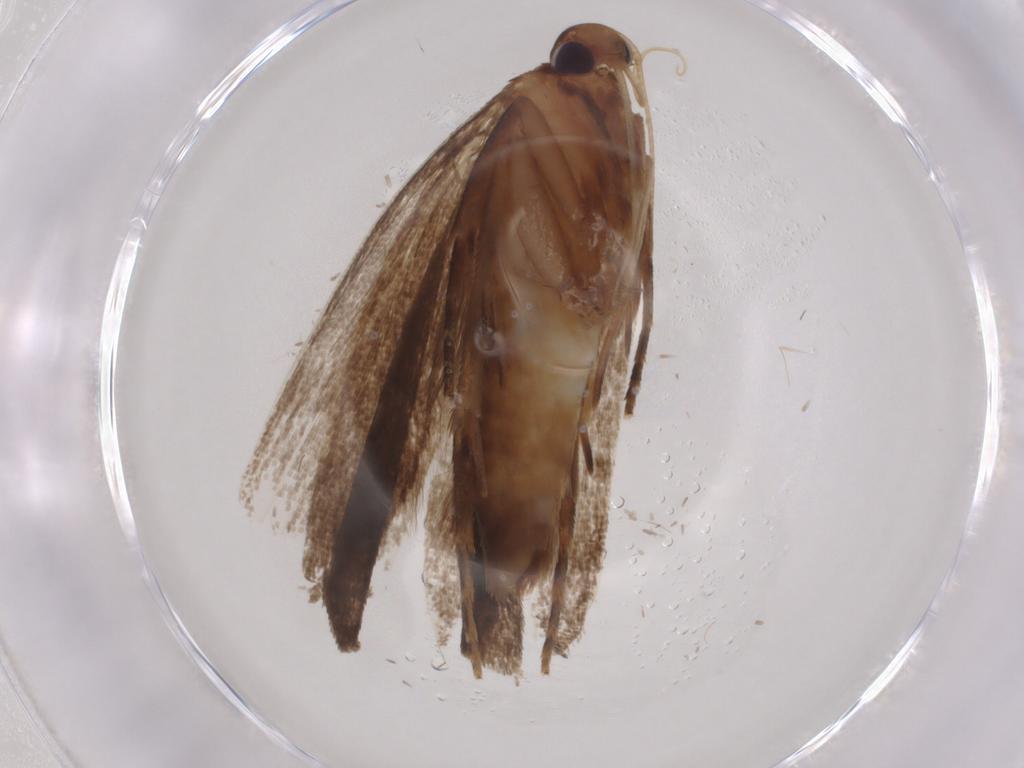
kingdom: Animalia
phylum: Arthropoda
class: Insecta
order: Lepidoptera
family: Gelechiidae
